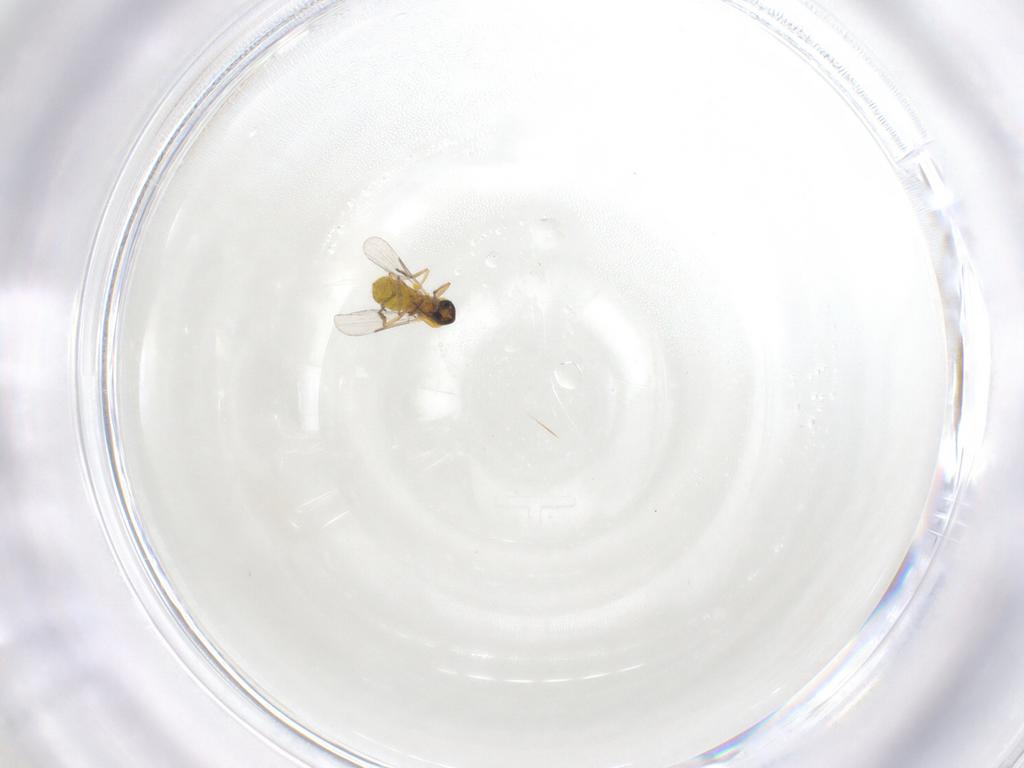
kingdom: Animalia
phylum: Arthropoda
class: Insecta
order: Diptera
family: Ceratopogonidae
